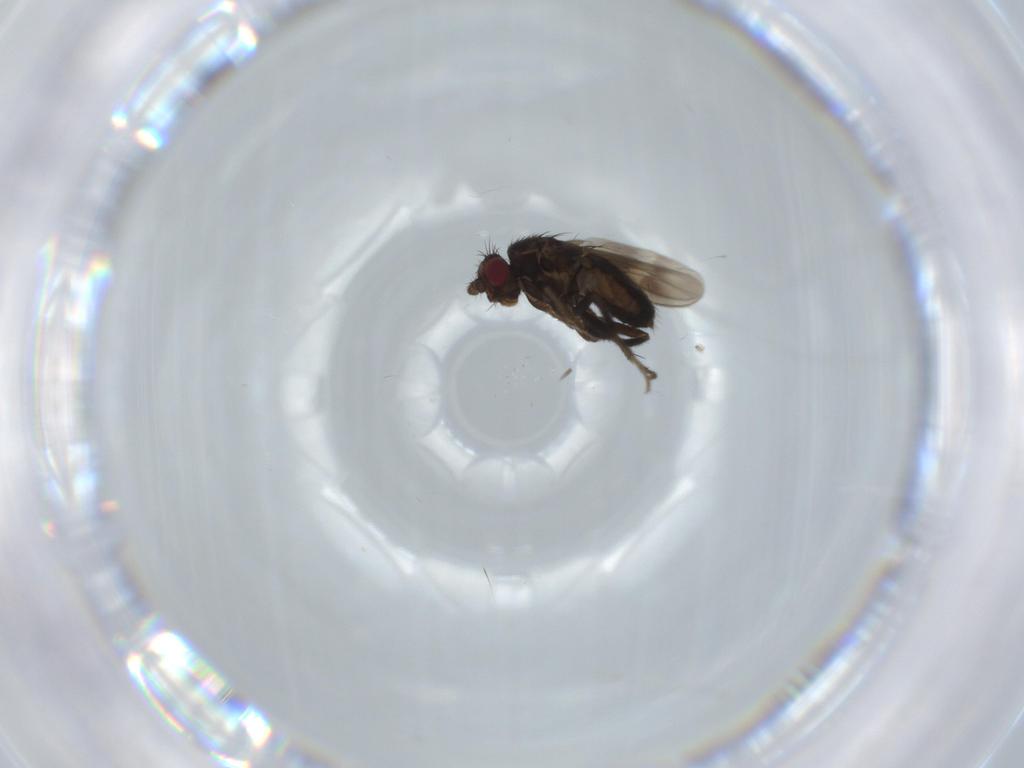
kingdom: Animalia
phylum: Arthropoda
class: Insecta
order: Diptera
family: Sphaeroceridae
